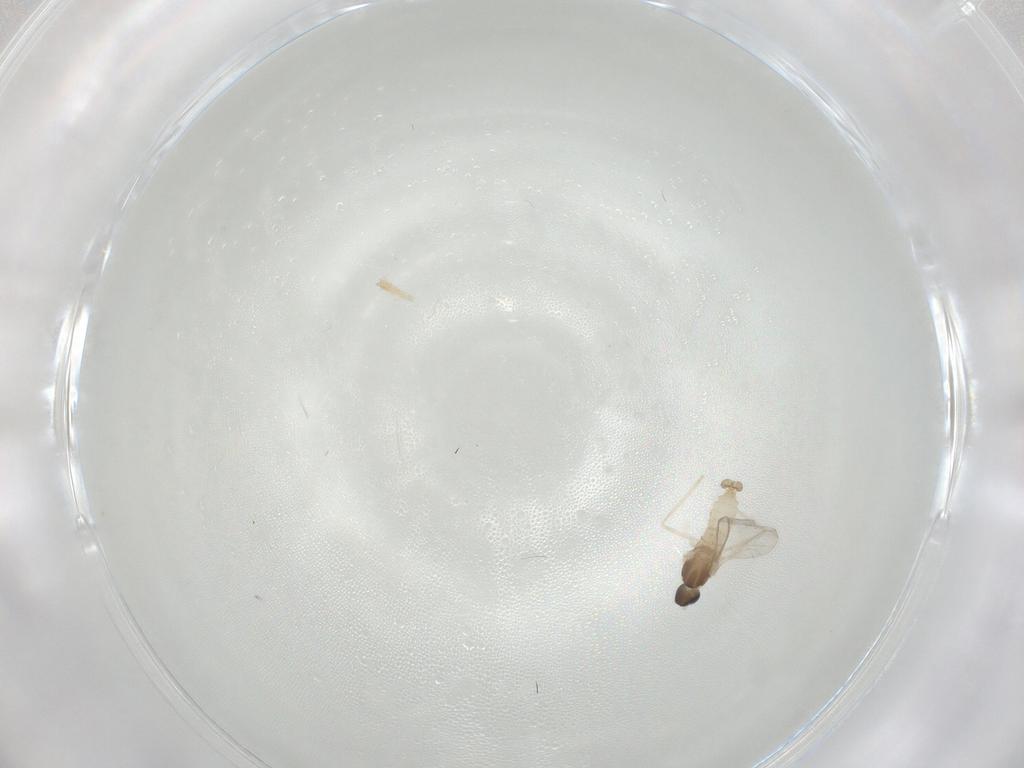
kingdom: Animalia
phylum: Arthropoda
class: Insecta
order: Diptera
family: Cecidomyiidae
